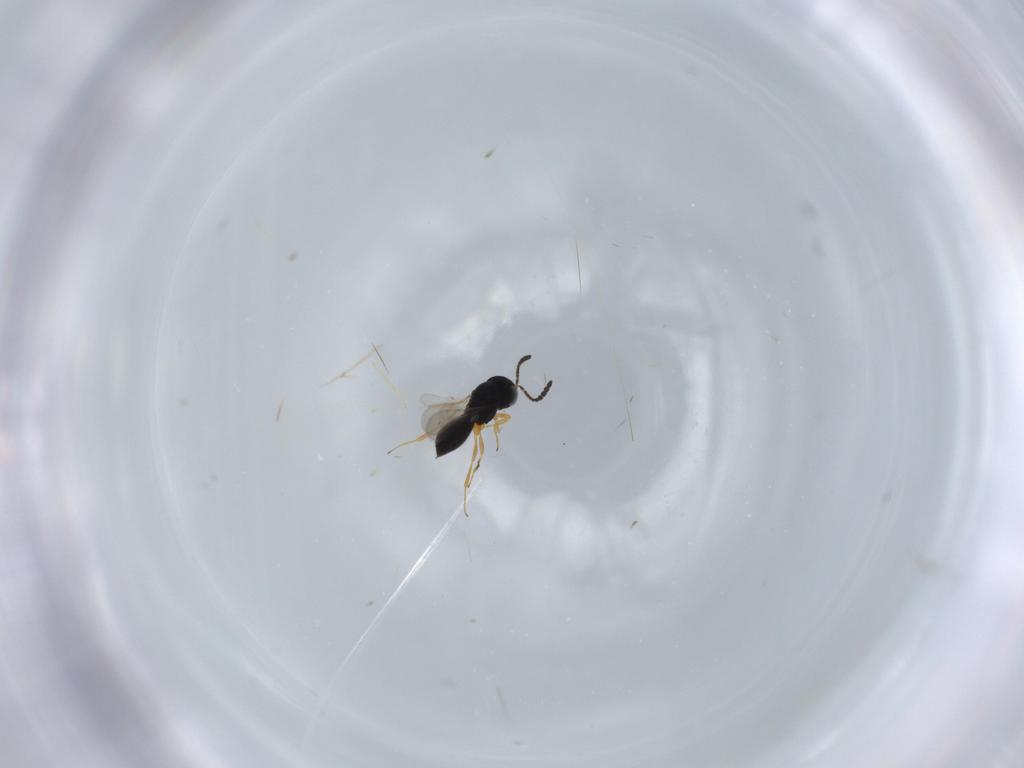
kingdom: Animalia
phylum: Arthropoda
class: Insecta
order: Hymenoptera
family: Scelionidae
